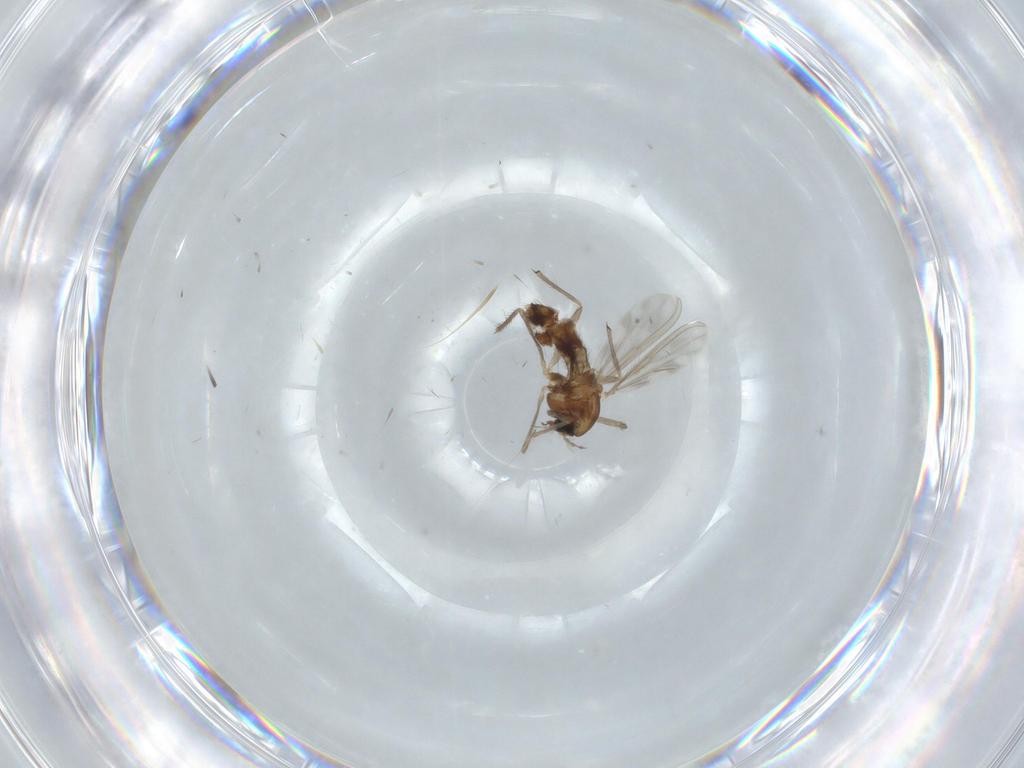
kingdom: Animalia
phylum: Arthropoda
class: Insecta
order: Diptera
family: Chironomidae
